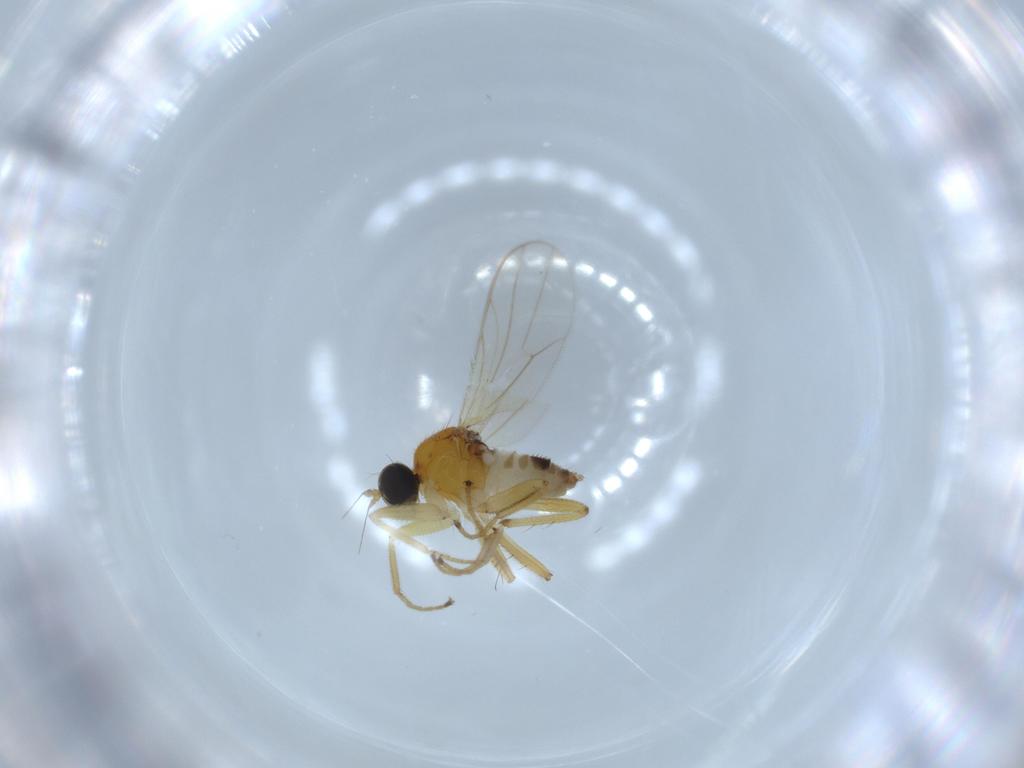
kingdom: Animalia
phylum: Arthropoda
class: Insecta
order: Diptera
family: Hybotidae
